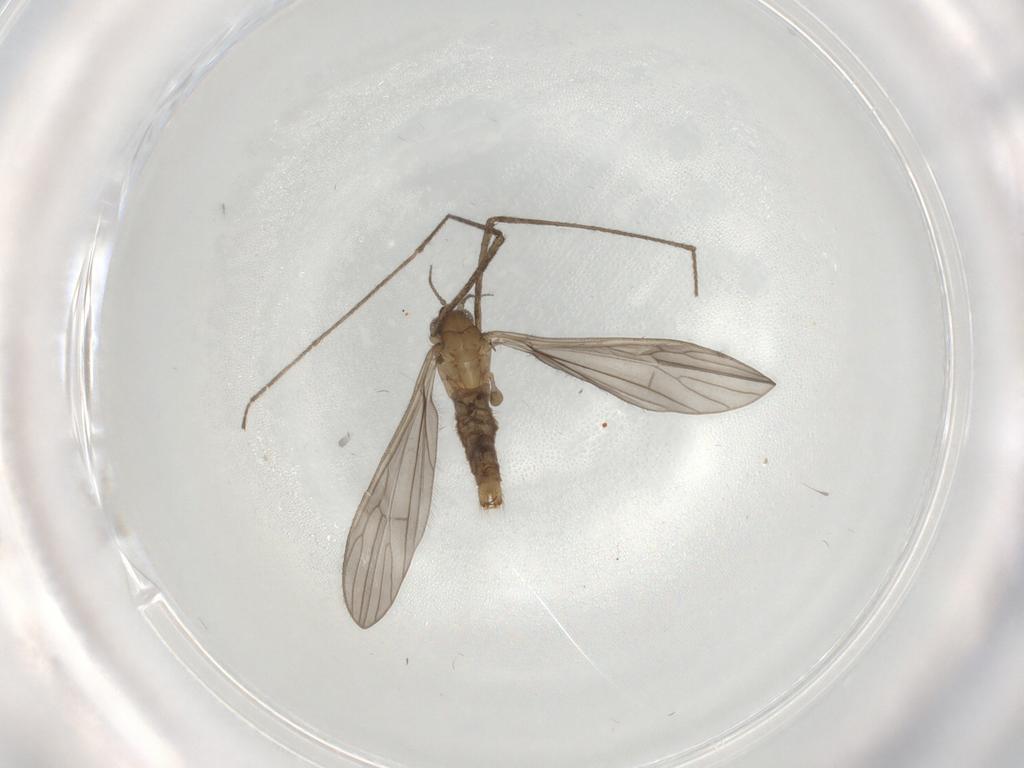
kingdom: Animalia
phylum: Arthropoda
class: Insecta
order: Diptera
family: Limoniidae
